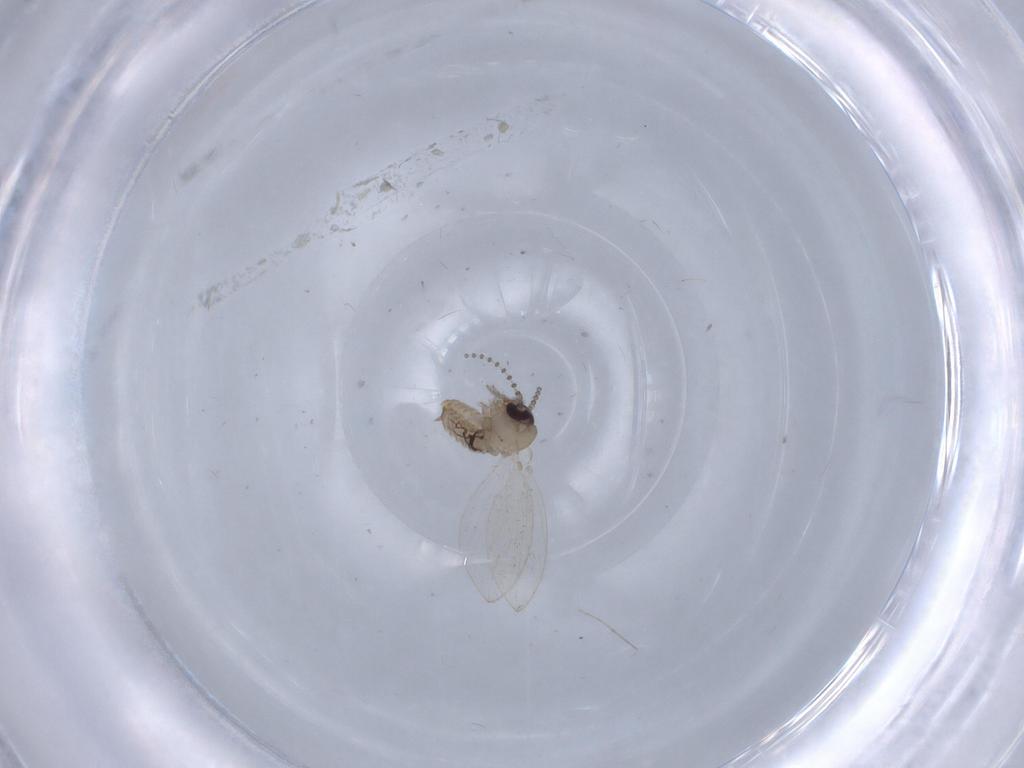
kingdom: Animalia
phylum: Arthropoda
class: Insecta
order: Diptera
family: Psychodidae
